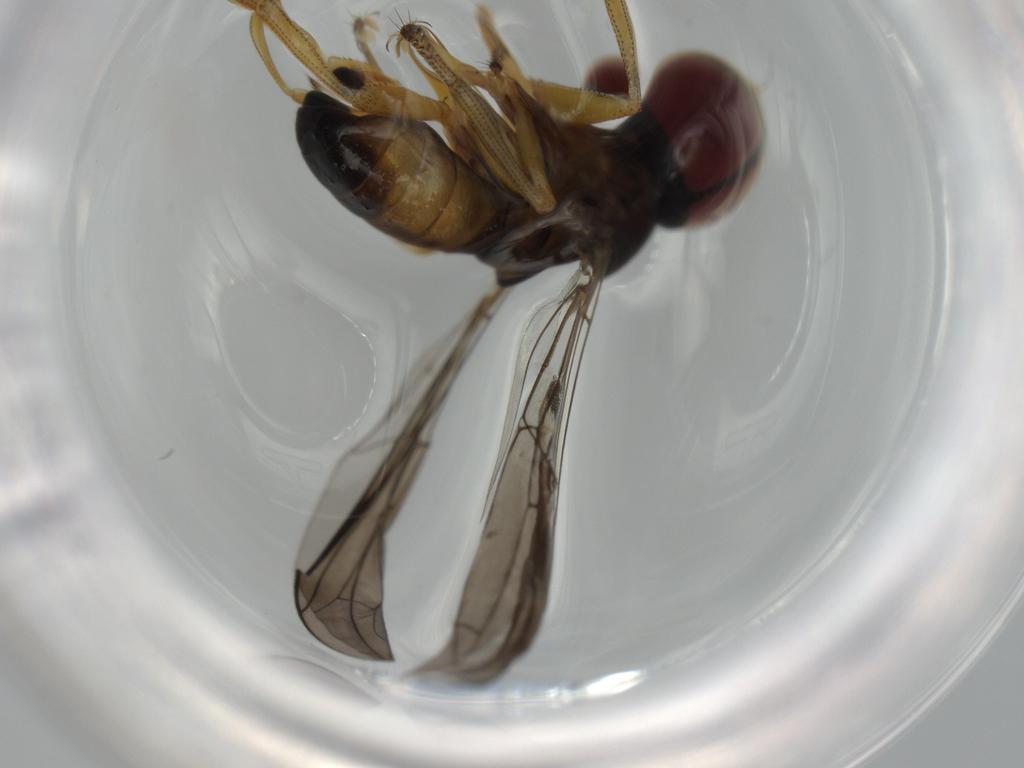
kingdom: Animalia
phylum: Arthropoda
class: Insecta
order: Diptera
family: Pipunculidae
